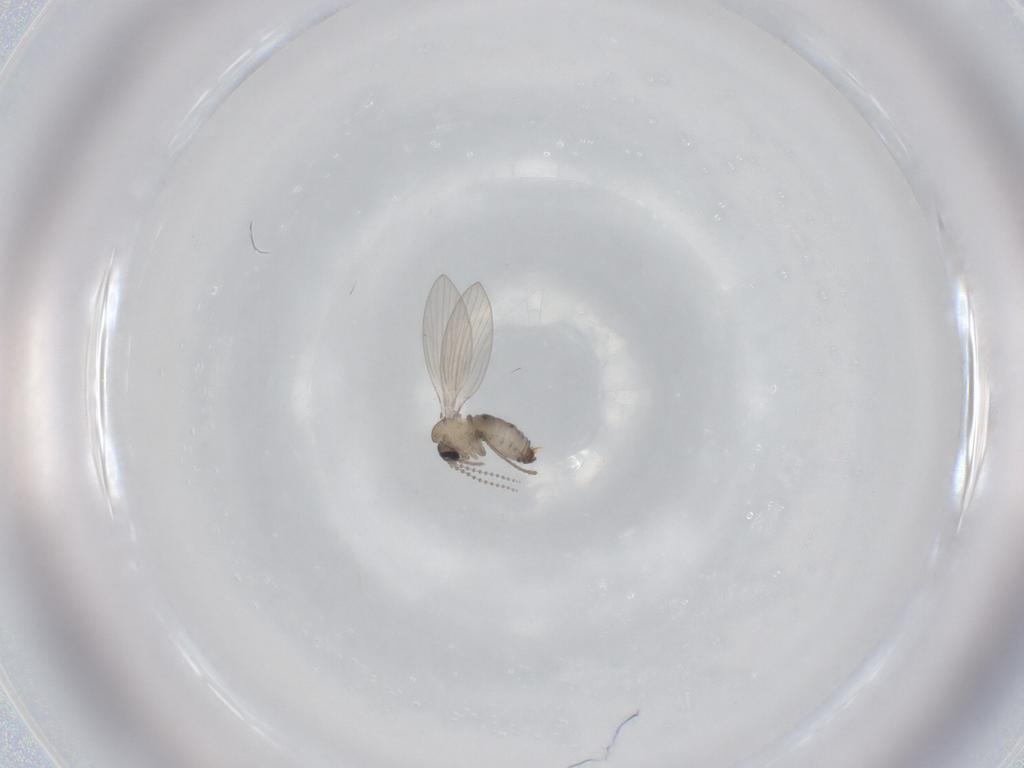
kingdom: Animalia
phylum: Arthropoda
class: Insecta
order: Diptera
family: Psychodidae
